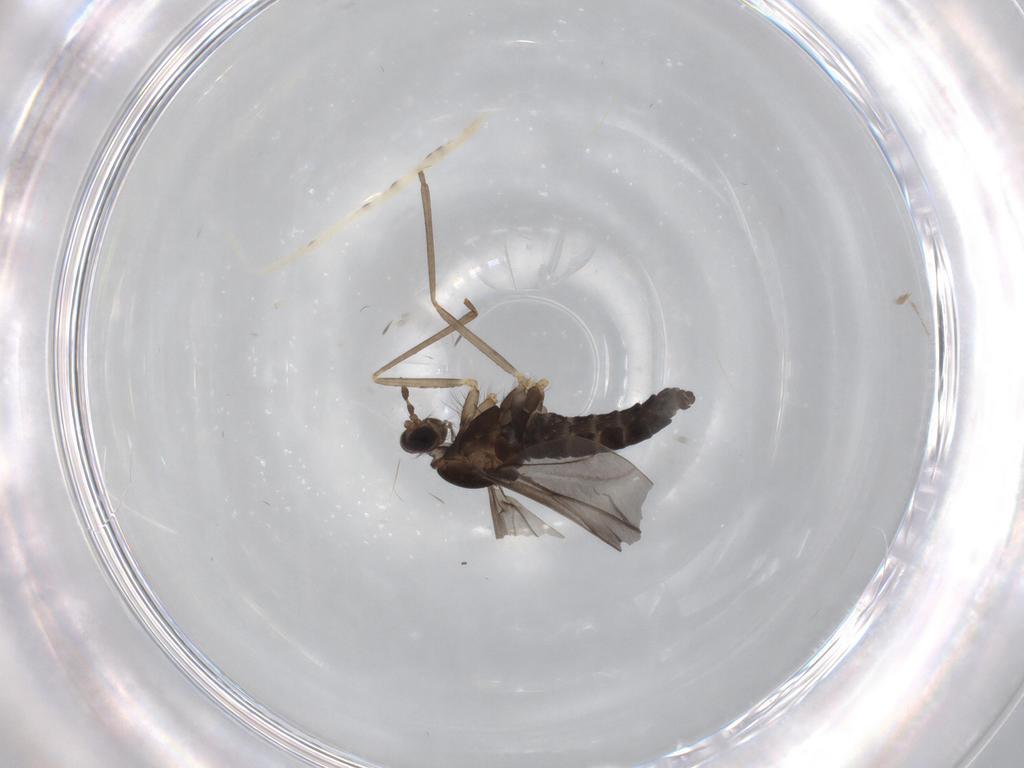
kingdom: Animalia
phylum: Arthropoda
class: Insecta
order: Diptera
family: Cecidomyiidae
